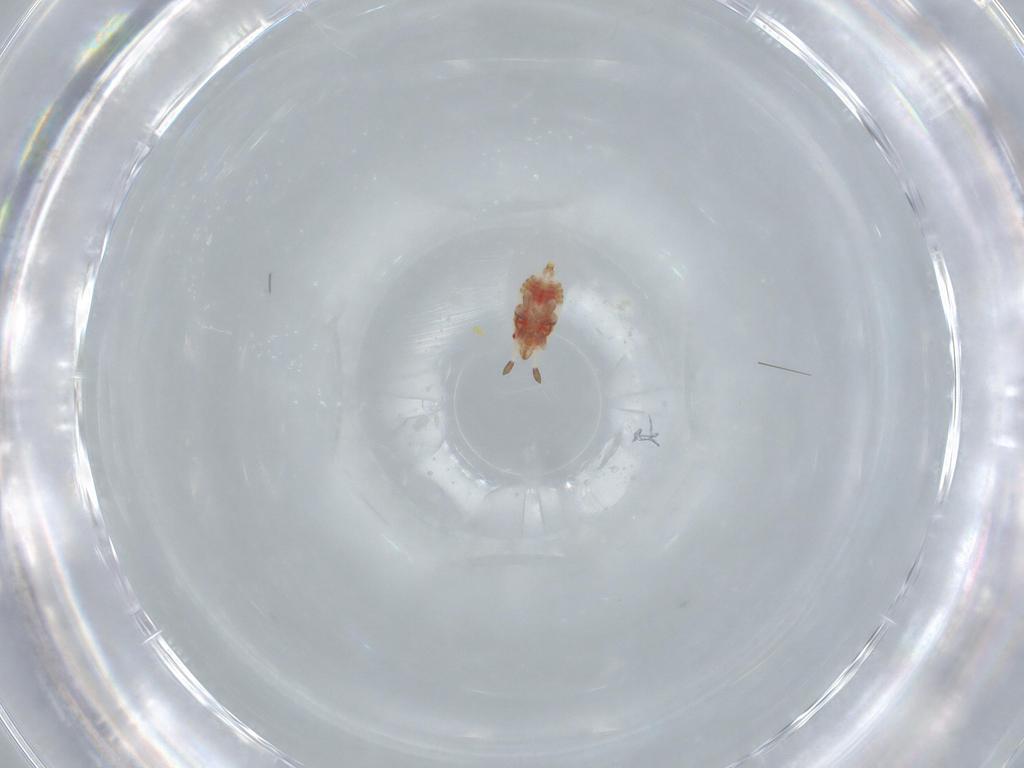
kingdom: Animalia
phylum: Arthropoda
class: Insecta
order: Hemiptera
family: Aradidae
